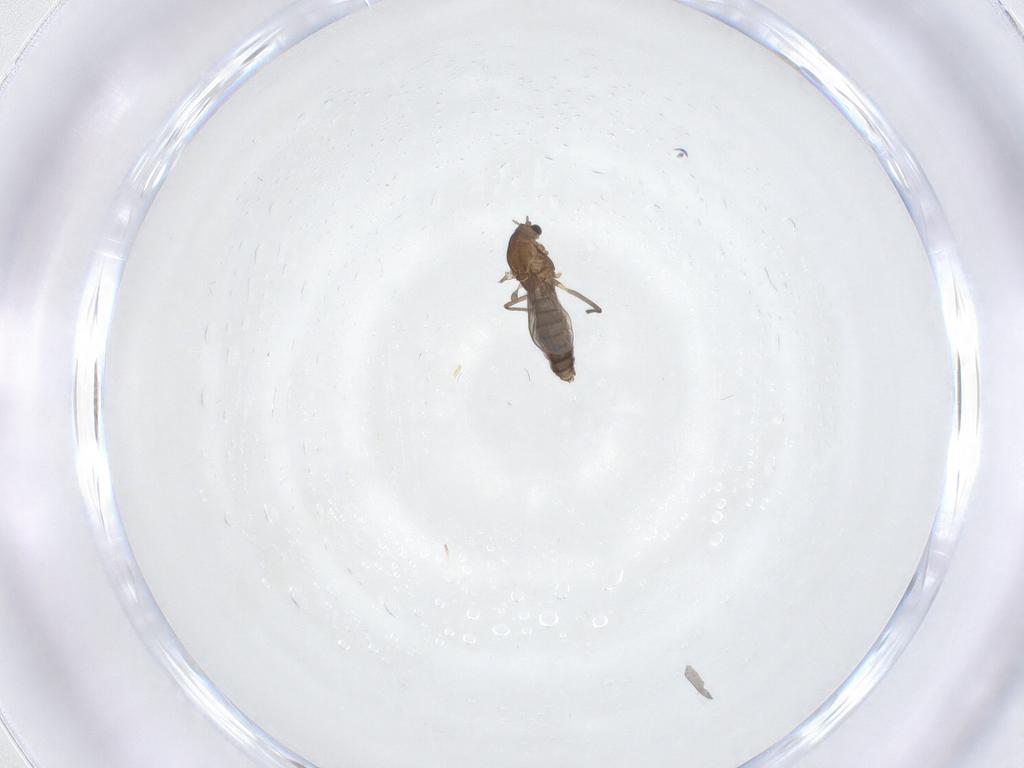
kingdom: Animalia
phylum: Arthropoda
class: Insecta
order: Diptera
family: Chironomidae
